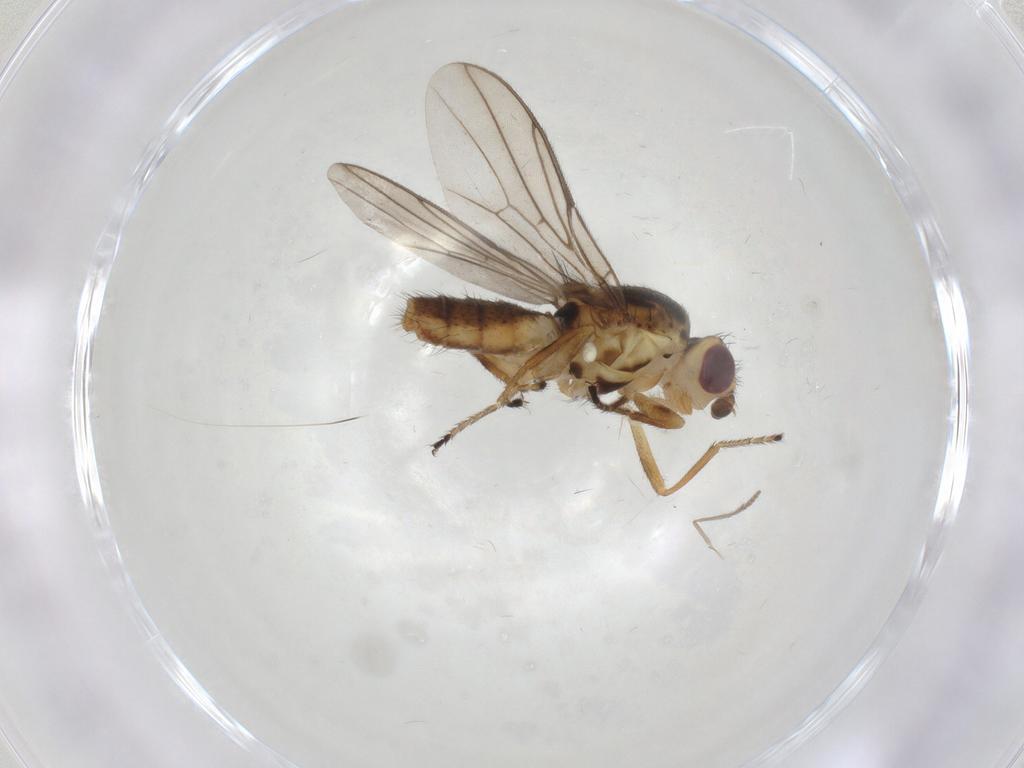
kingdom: Animalia
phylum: Arthropoda
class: Insecta
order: Diptera
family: Chloropidae
